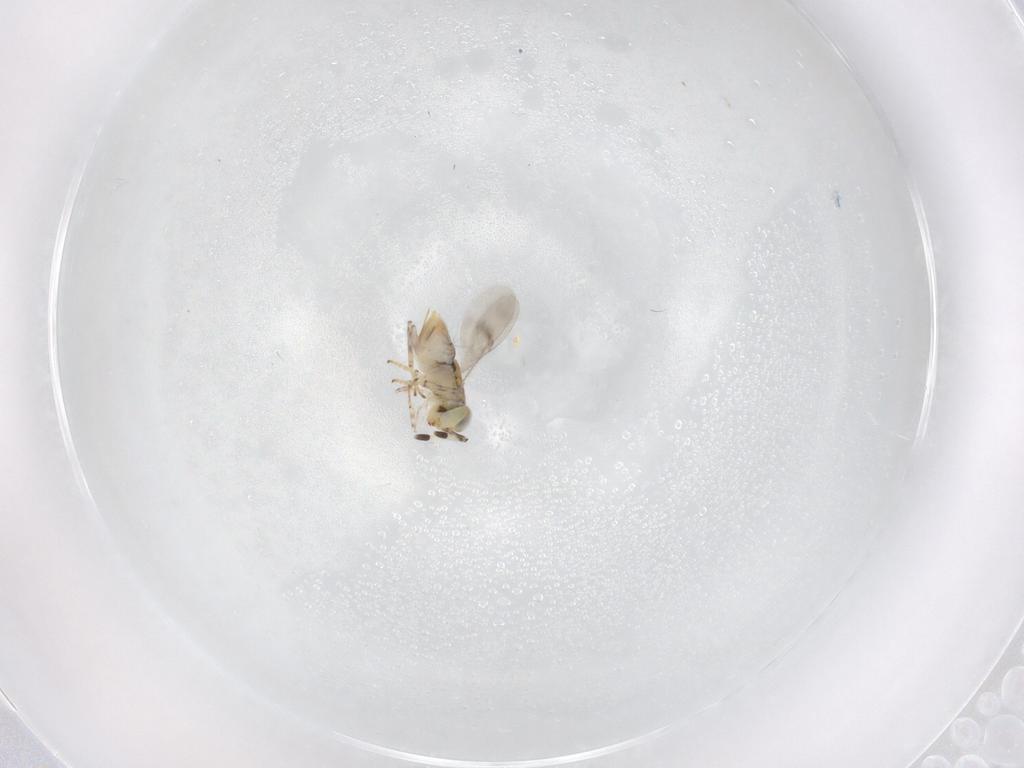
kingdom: Animalia
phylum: Arthropoda
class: Insecta
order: Hymenoptera
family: Encyrtidae
